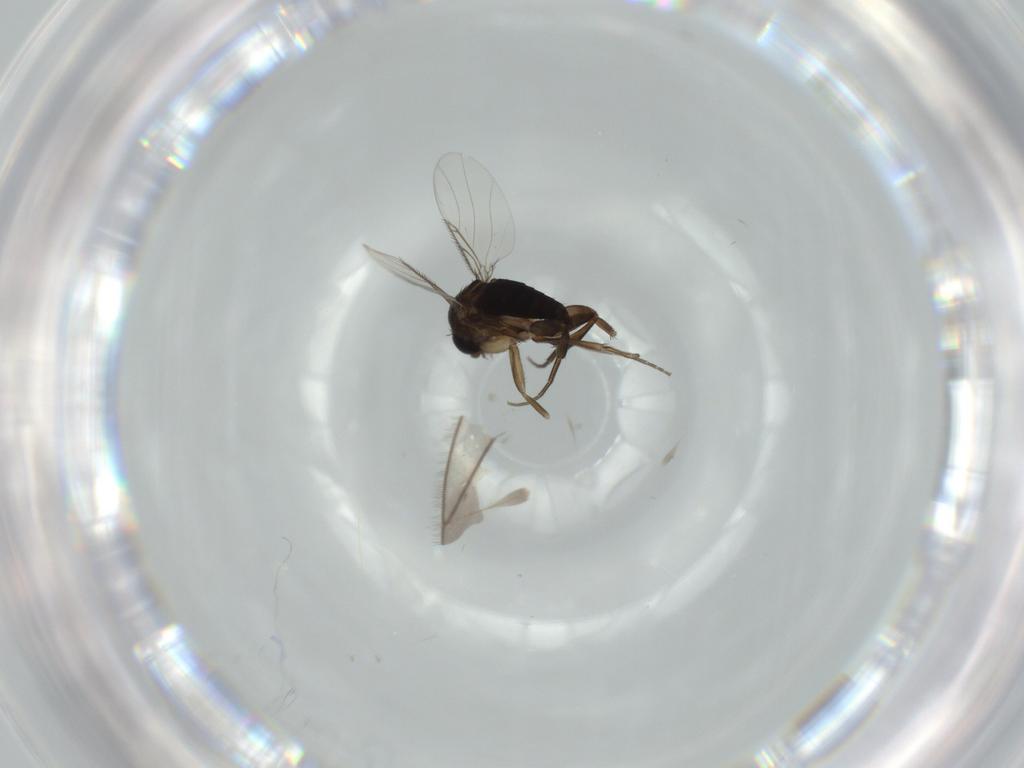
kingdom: Animalia
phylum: Arthropoda
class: Insecta
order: Diptera
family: Phoridae
